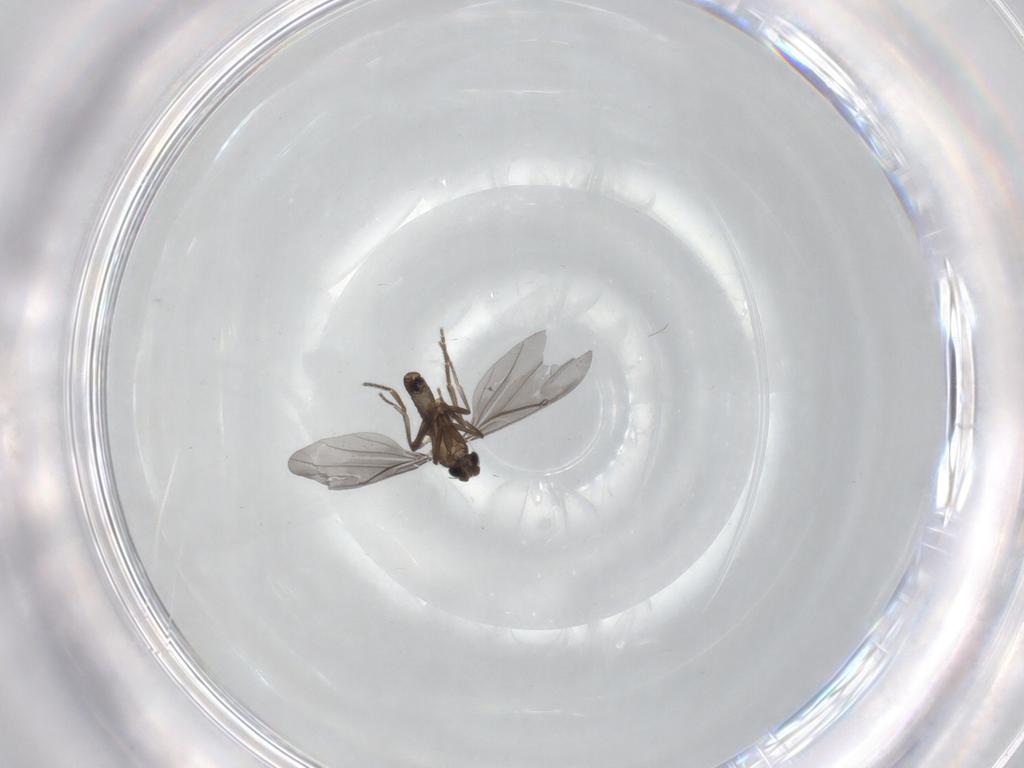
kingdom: Animalia
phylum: Arthropoda
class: Insecta
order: Diptera
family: Phoridae
